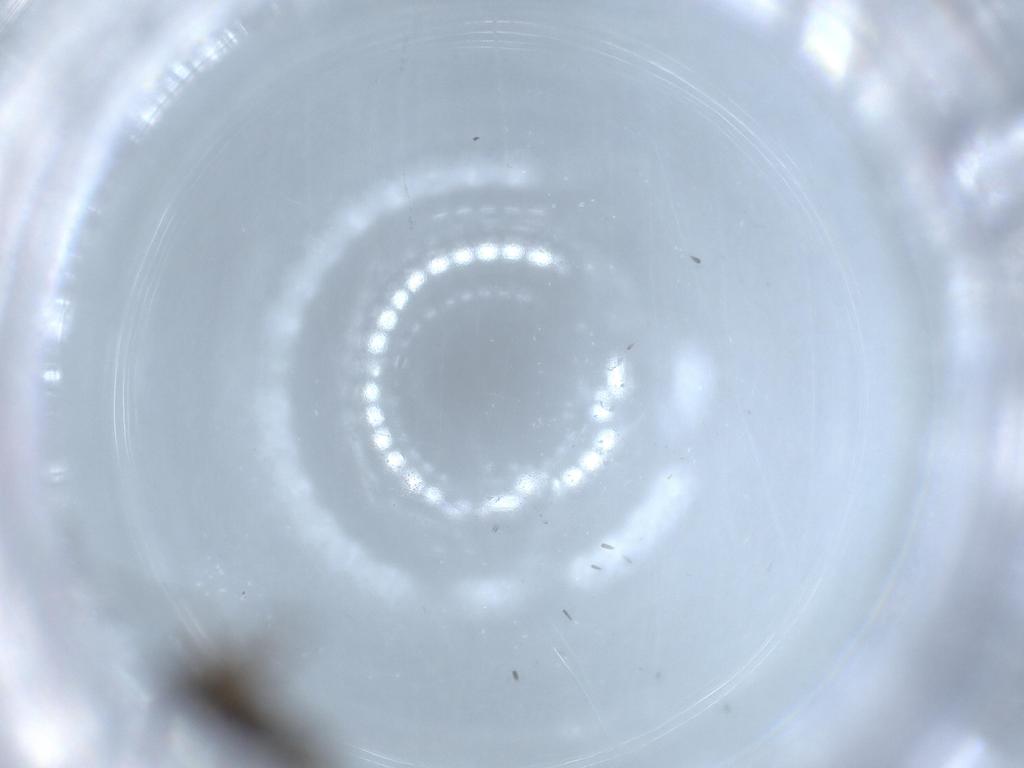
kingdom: Animalia
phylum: Arthropoda
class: Insecta
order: Diptera
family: Sciaridae
